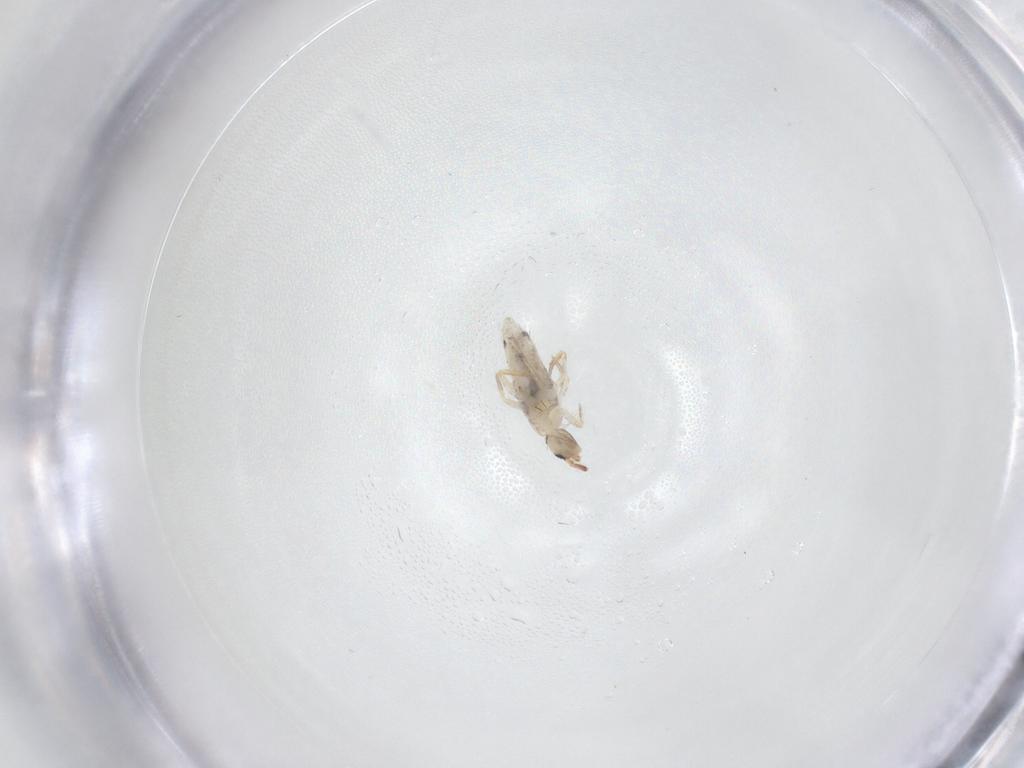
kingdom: Animalia
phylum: Arthropoda
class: Collembola
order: Entomobryomorpha
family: Entomobryidae
